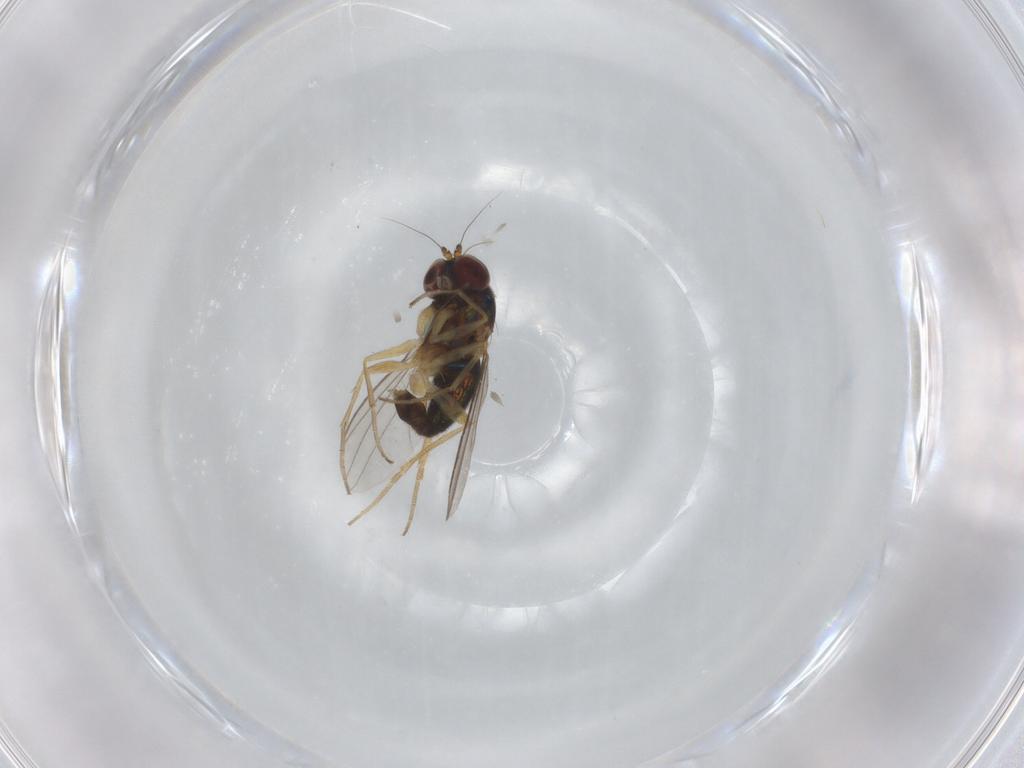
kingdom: Animalia
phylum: Arthropoda
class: Insecta
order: Diptera
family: Dolichopodidae
